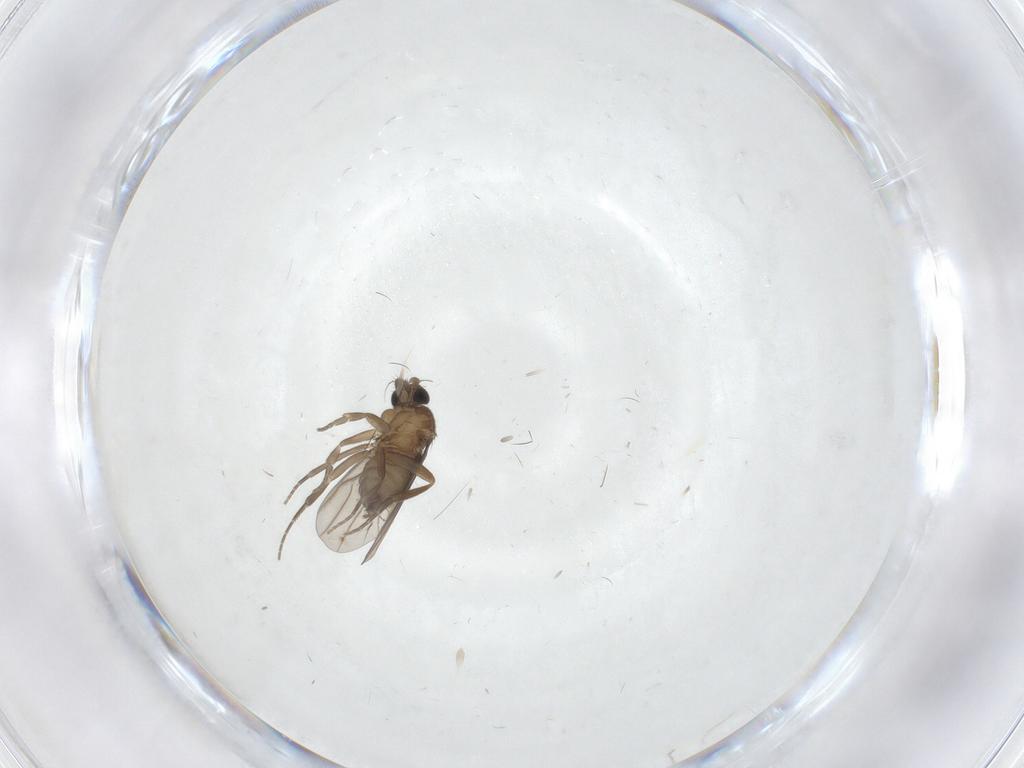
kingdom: Animalia
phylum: Arthropoda
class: Insecta
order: Diptera
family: Chironomidae
